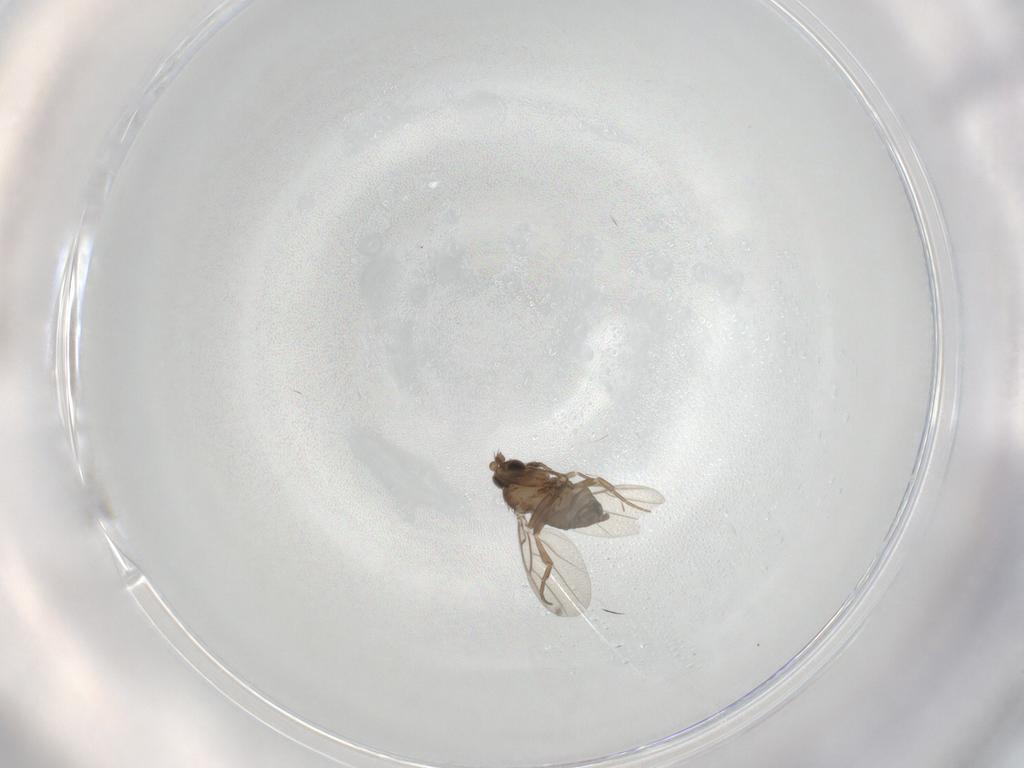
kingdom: Animalia
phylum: Arthropoda
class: Insecta
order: Diptera
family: Phoridae
